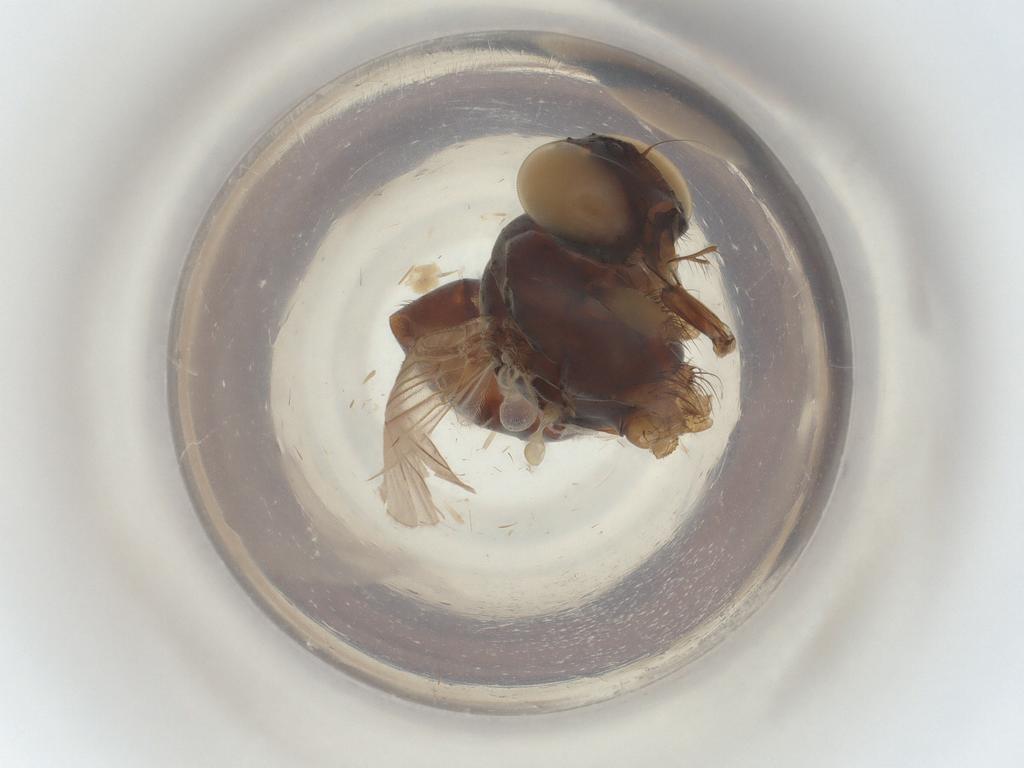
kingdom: Animalia
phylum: Arthropoda
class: Insecta
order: Diptera
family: Muscidae
